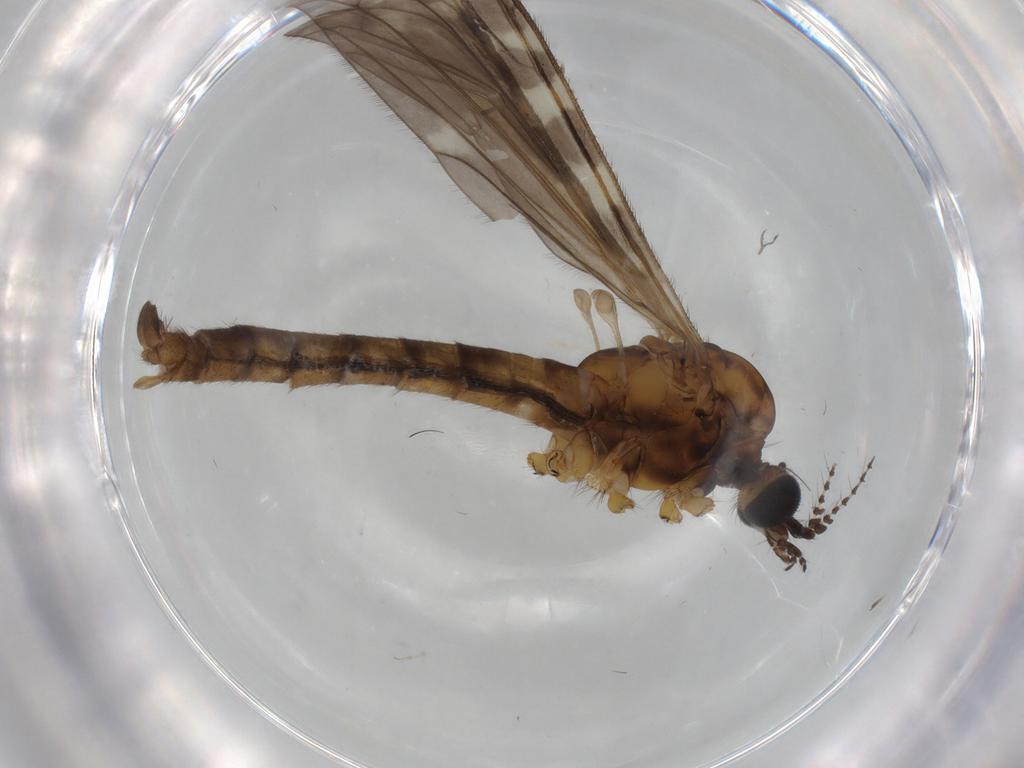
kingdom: Animalia
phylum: Arthropoda
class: Insecta
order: Diptera
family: Limoniidae
